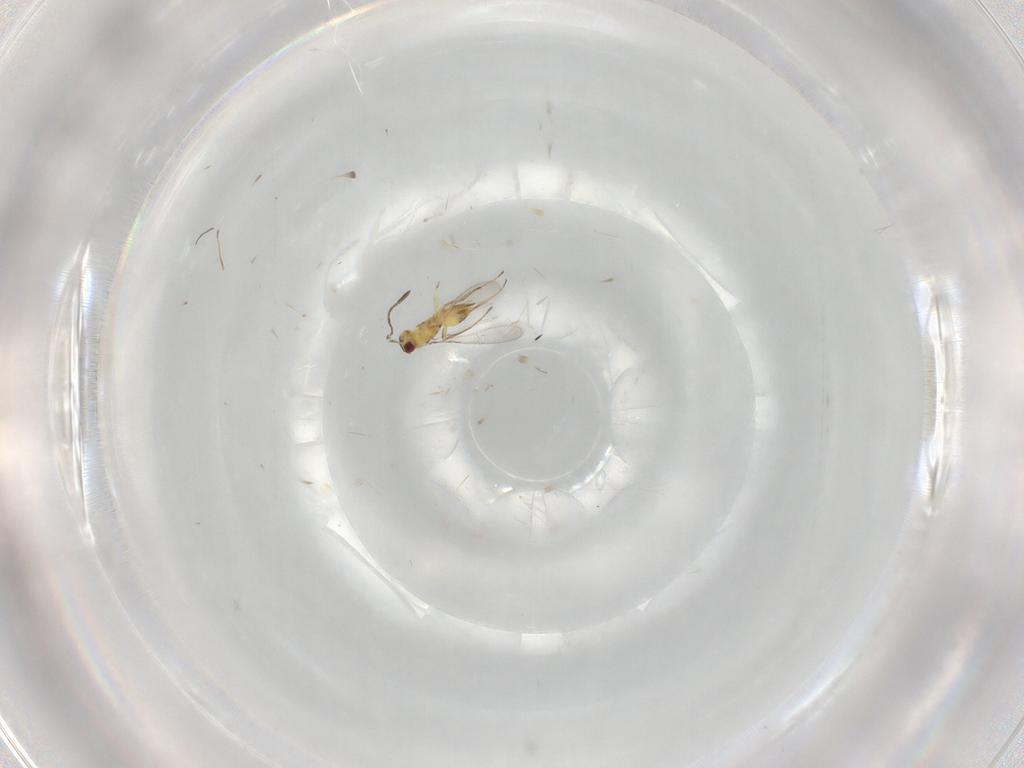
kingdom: Animalia
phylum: Arthropoda
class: Insecta
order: Hymenoptera
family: Mymaridae
